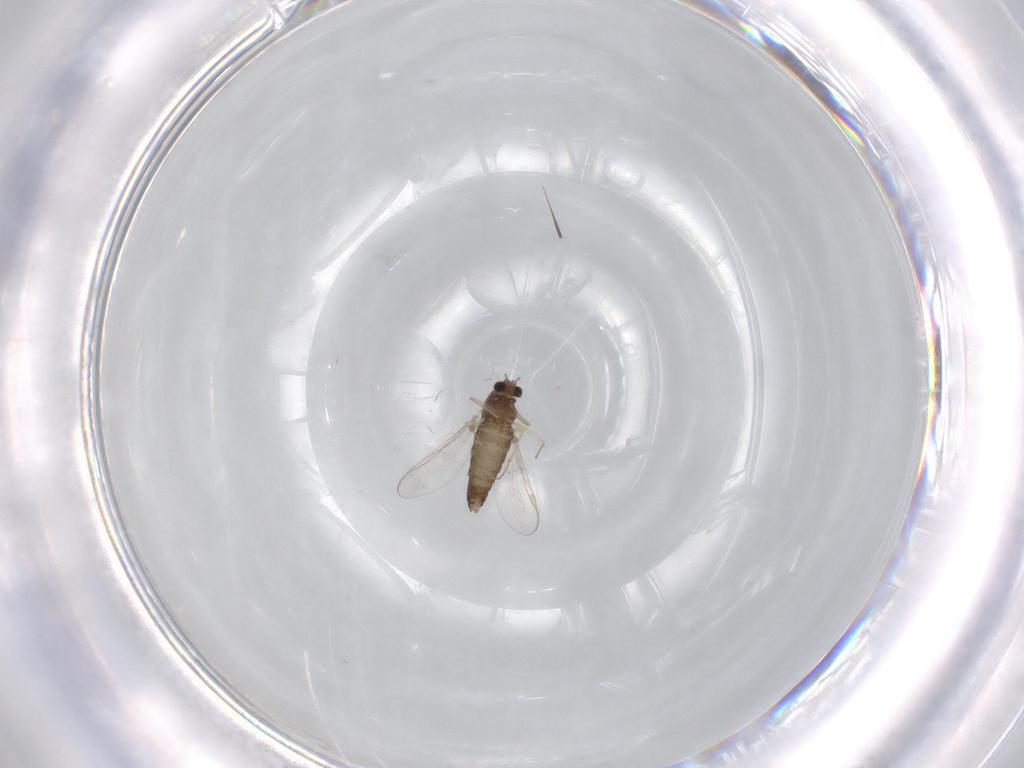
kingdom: Animalia
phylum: Arthropoda
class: Insecta
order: Diptera
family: Chironomidae
